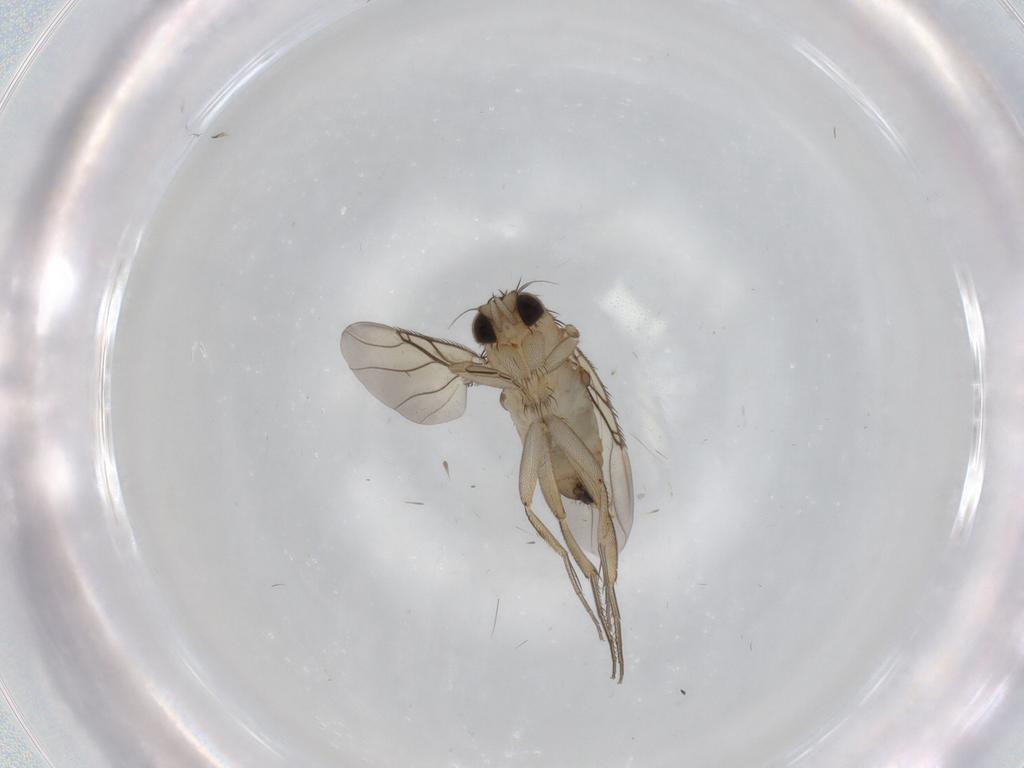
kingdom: Animalia
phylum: Arthropoda
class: Insecta
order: Diptera
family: Phoridae
